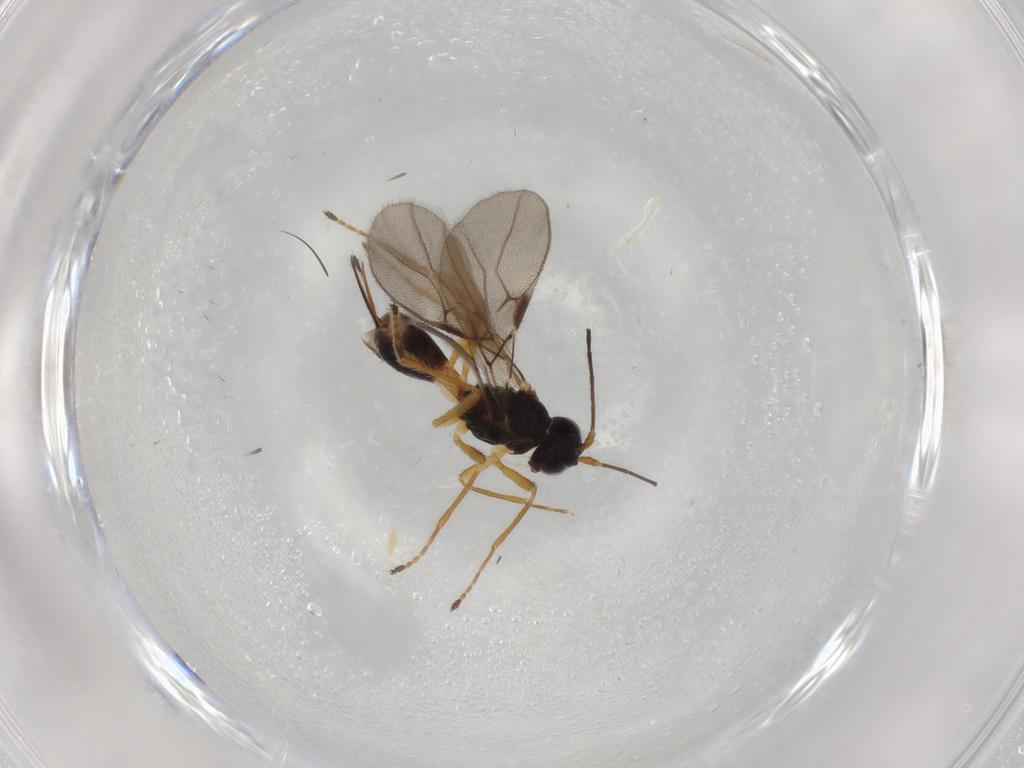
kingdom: Animalia
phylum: Arthropoda
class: Insecta
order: Hymenoptera
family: Braconidae
